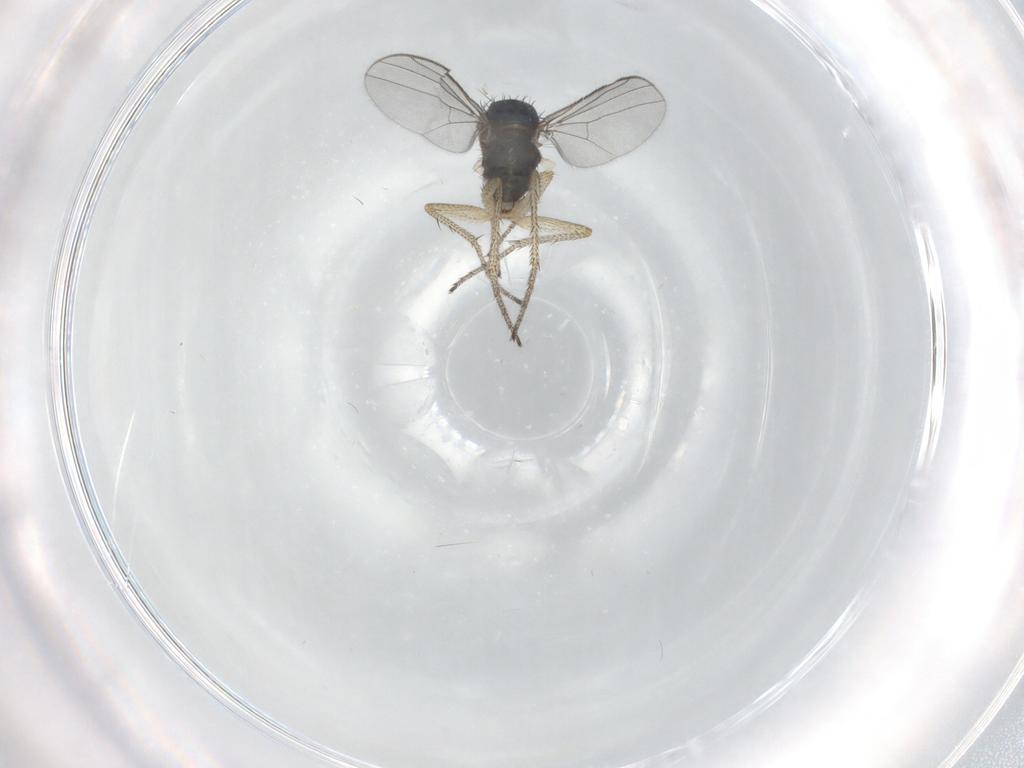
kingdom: Animalia
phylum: Arthropoda
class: Insecta
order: Diptera
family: Dolichopodidae
